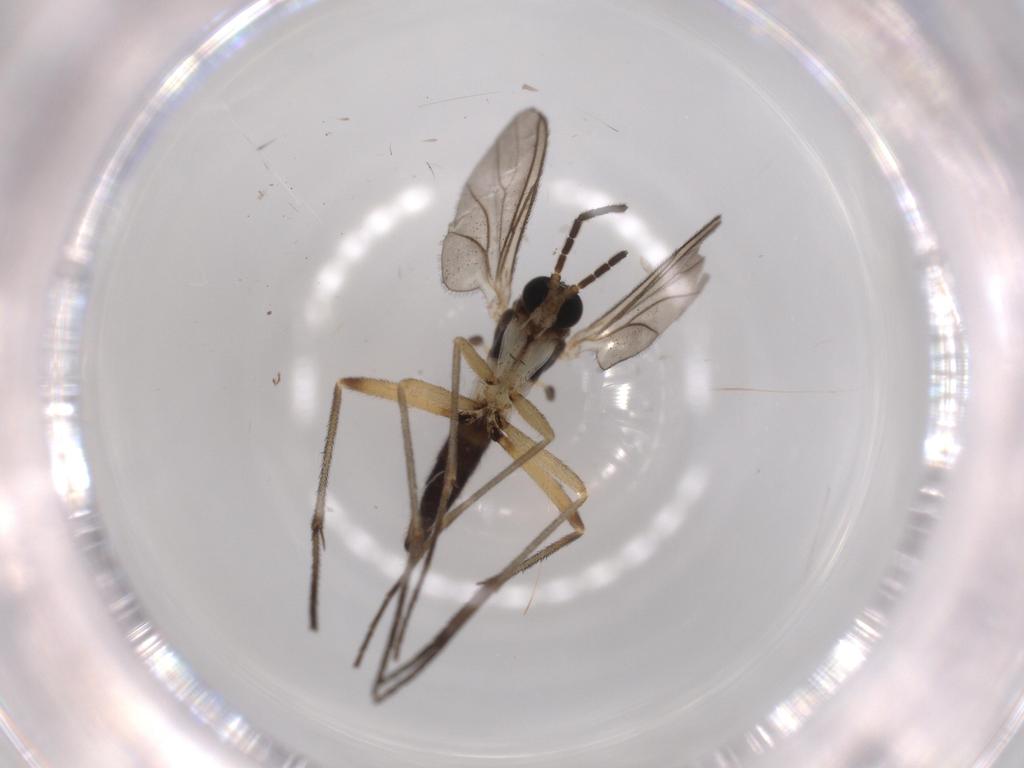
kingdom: Animalia
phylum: Arthropoda
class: Insecta
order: Diptera
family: Sciaridae
